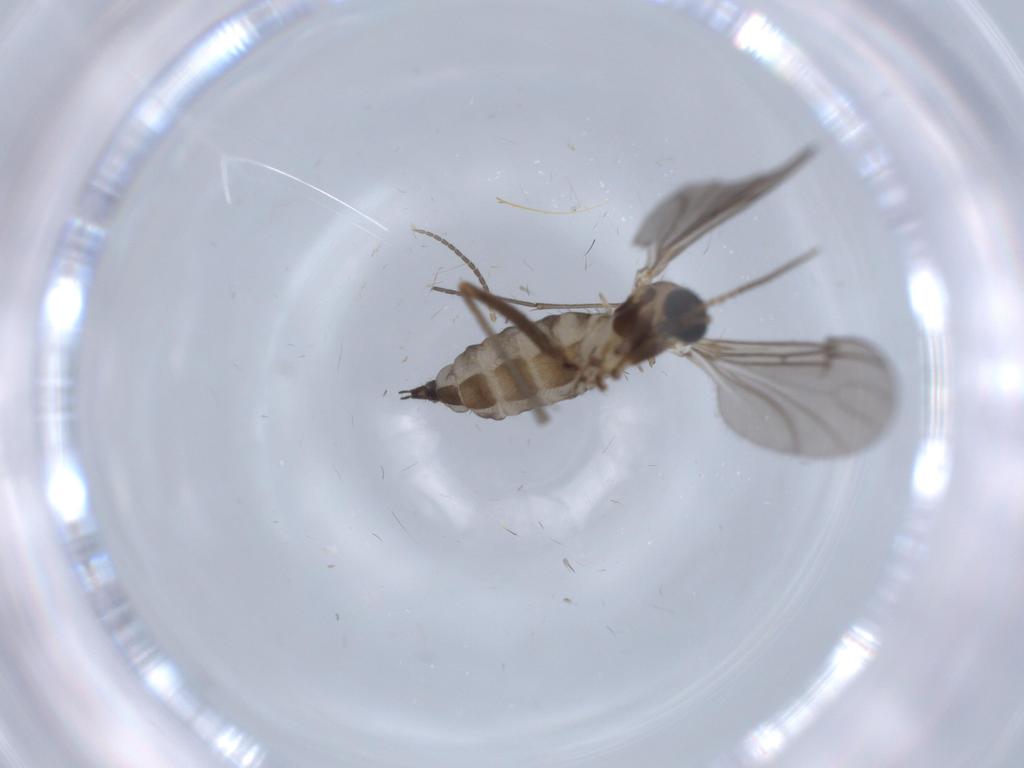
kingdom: Animalia
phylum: Arthropoda
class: Insecta
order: Diptera
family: Sciaridae
